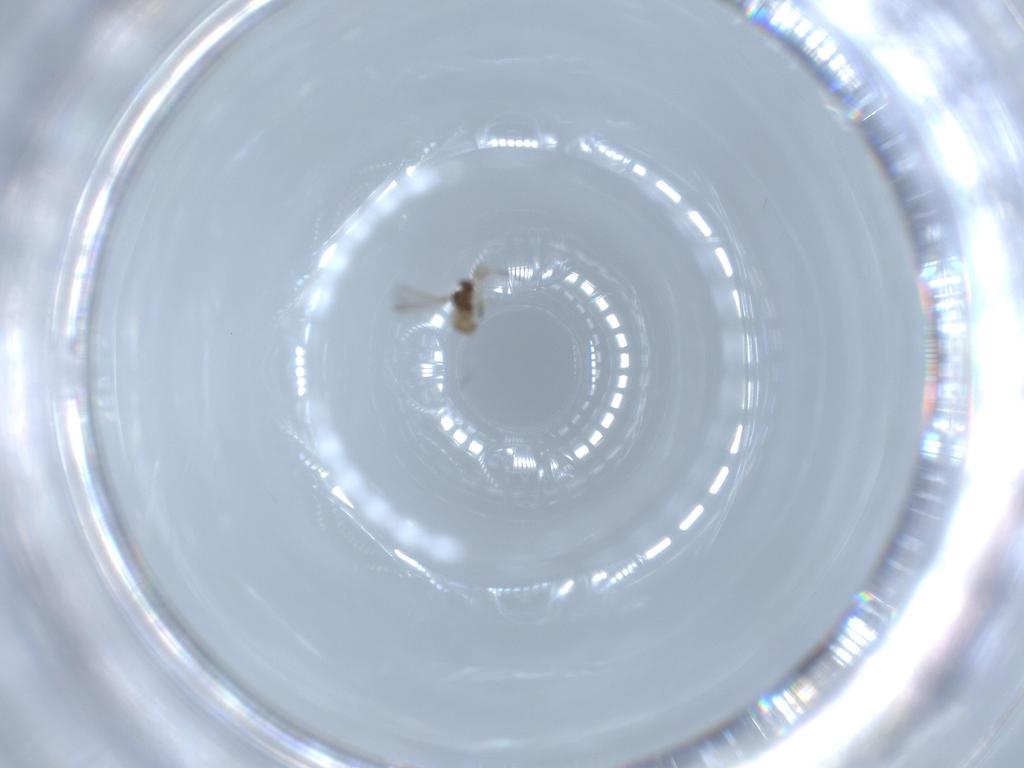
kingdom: Animalia
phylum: Arthropoda
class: Insecta
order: Hymenoptera
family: Mymaridae
